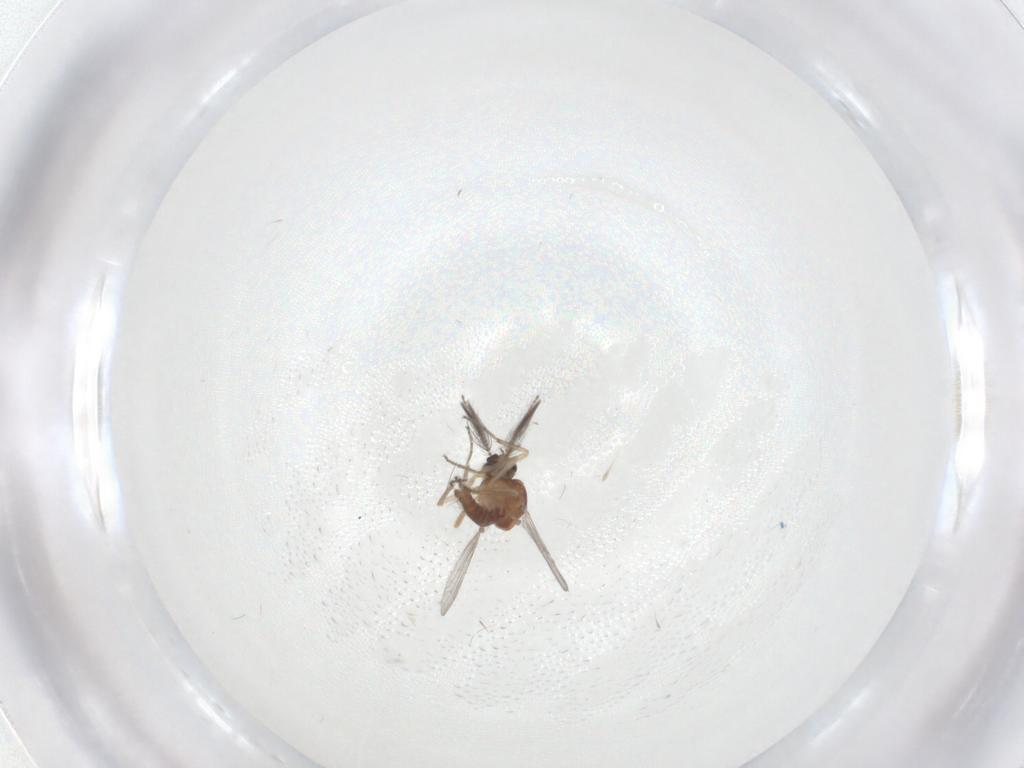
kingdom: Animalia
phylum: Arthropoda
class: Insecta
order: Diptera
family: Ceratopogonidae
